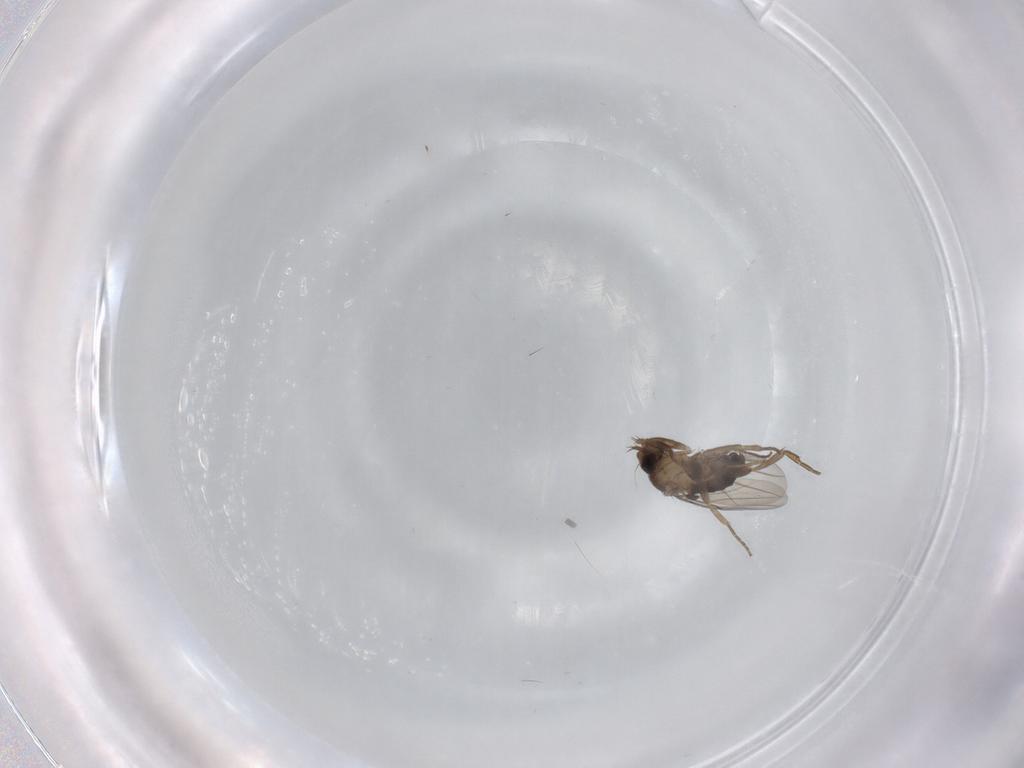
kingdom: Animalia
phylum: Arthropoda
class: Insecta
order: Diptera
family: Phoridae
